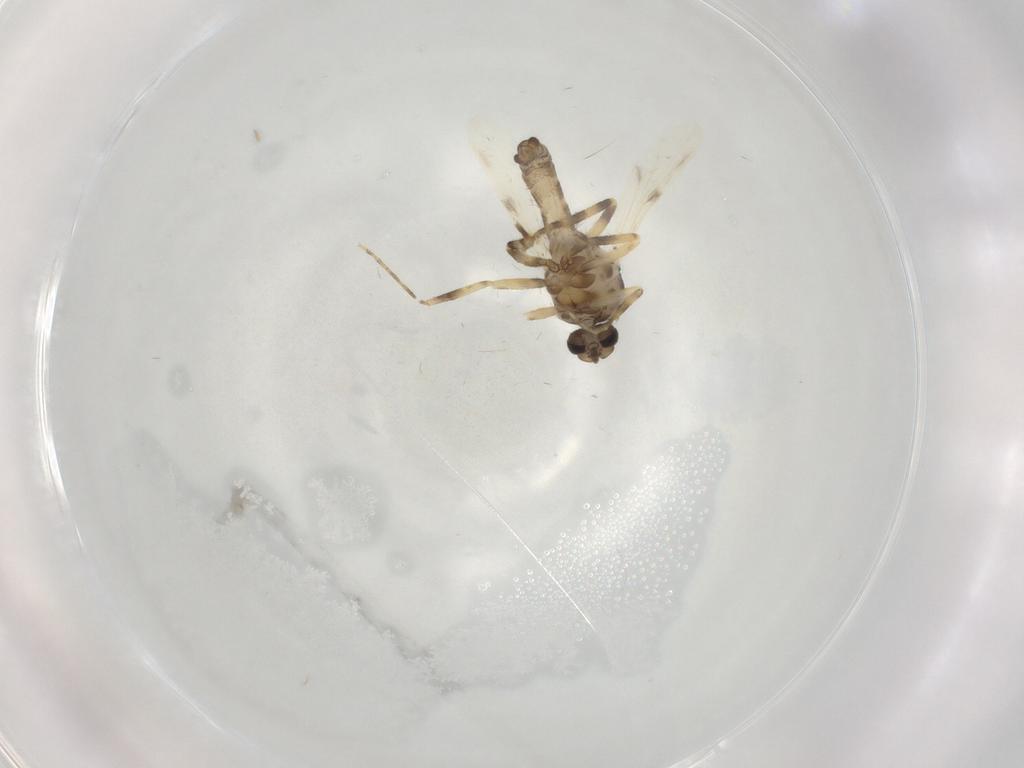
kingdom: Animalia
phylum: Arthropoda
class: Insecta
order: Diptera
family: Ceratopogonidae
